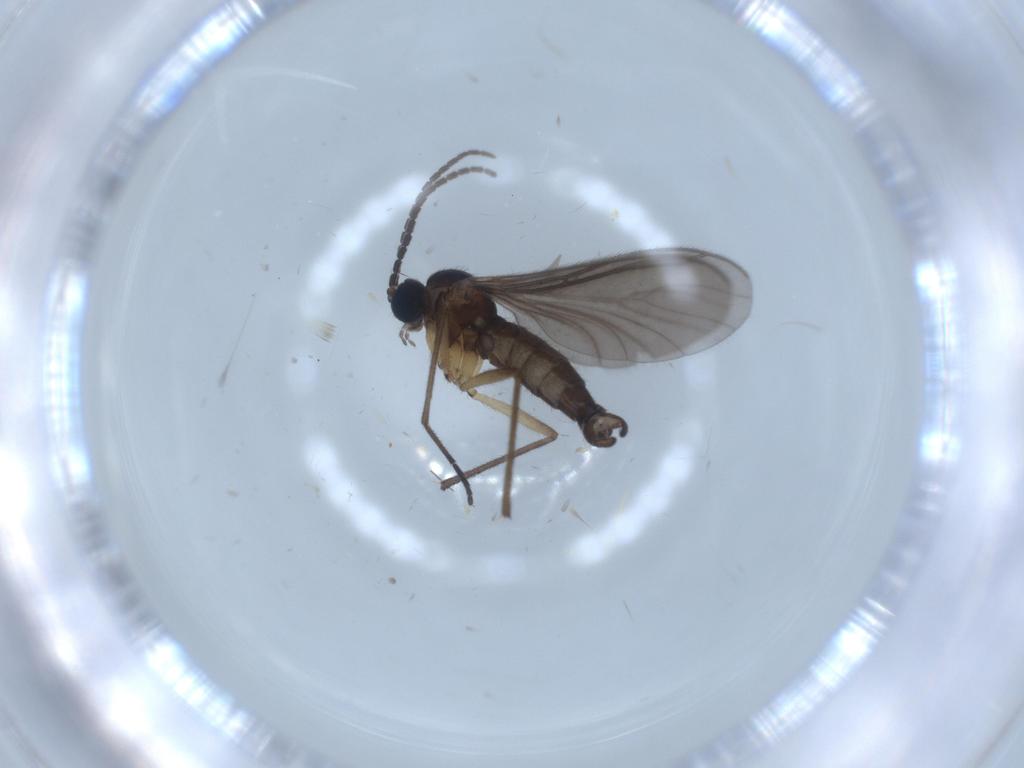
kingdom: Animalia
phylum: Arthropoda
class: Insecta
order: Diptera
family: Sciaridae
